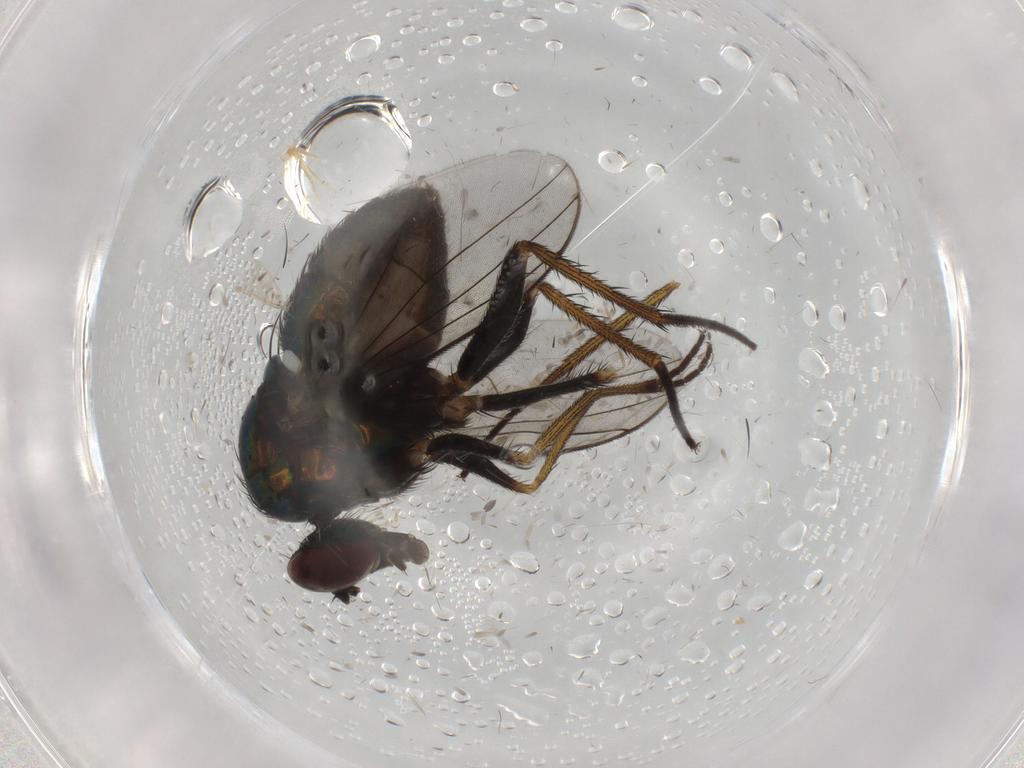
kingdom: Animalia
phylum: Arthropoda
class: Insecta
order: Diptera
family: Dolichopodidae
